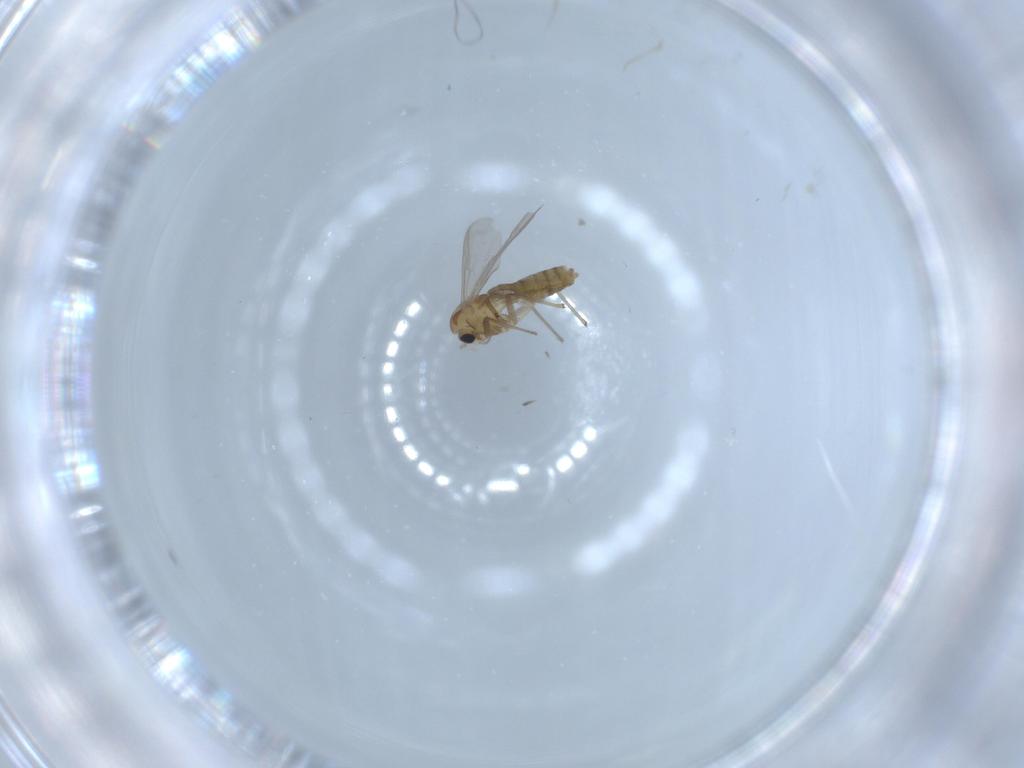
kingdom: Animalia
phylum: Arthropoda
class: Insecta
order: Diptera
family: Chironomidae
